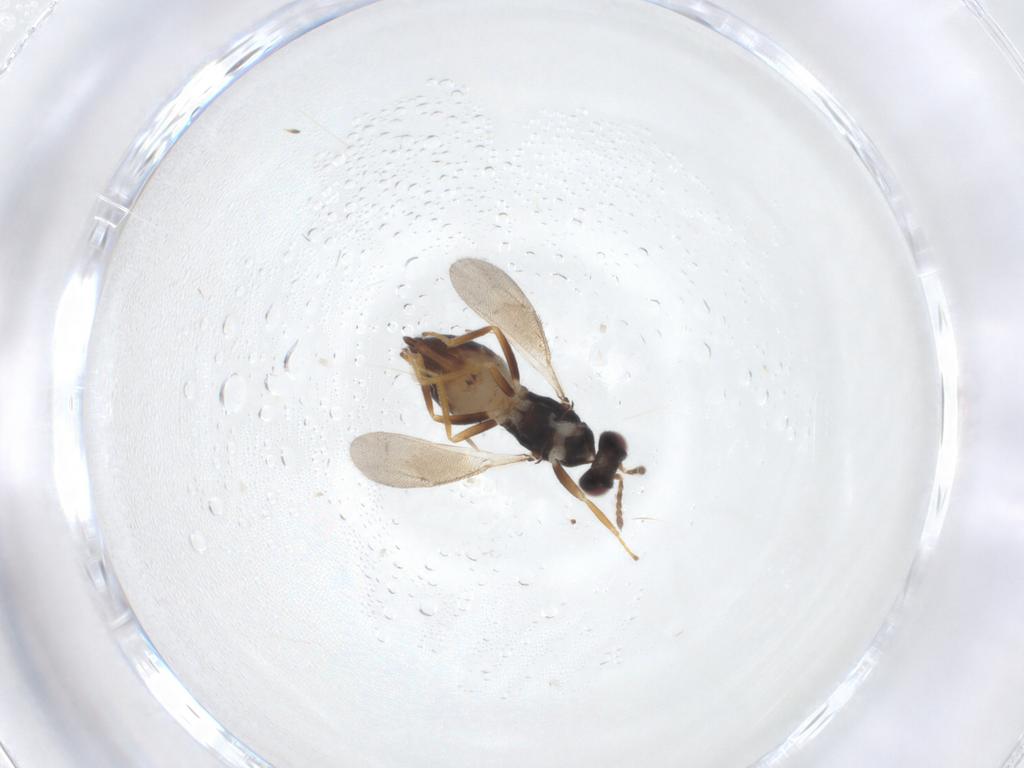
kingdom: Animalia
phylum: Arthropoda
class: Insecta
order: Hymenoptera
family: Eulophidae
